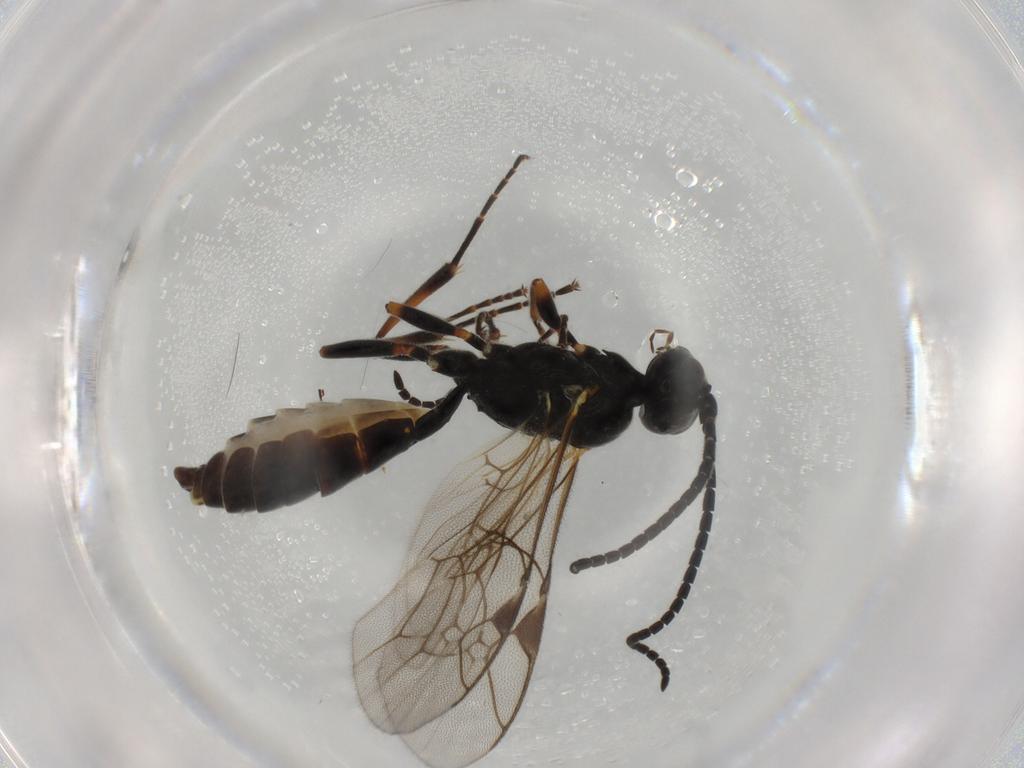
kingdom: Animalia
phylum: Arthropoda
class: Insecta
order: Hymenoptera
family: Ichneumonidae
